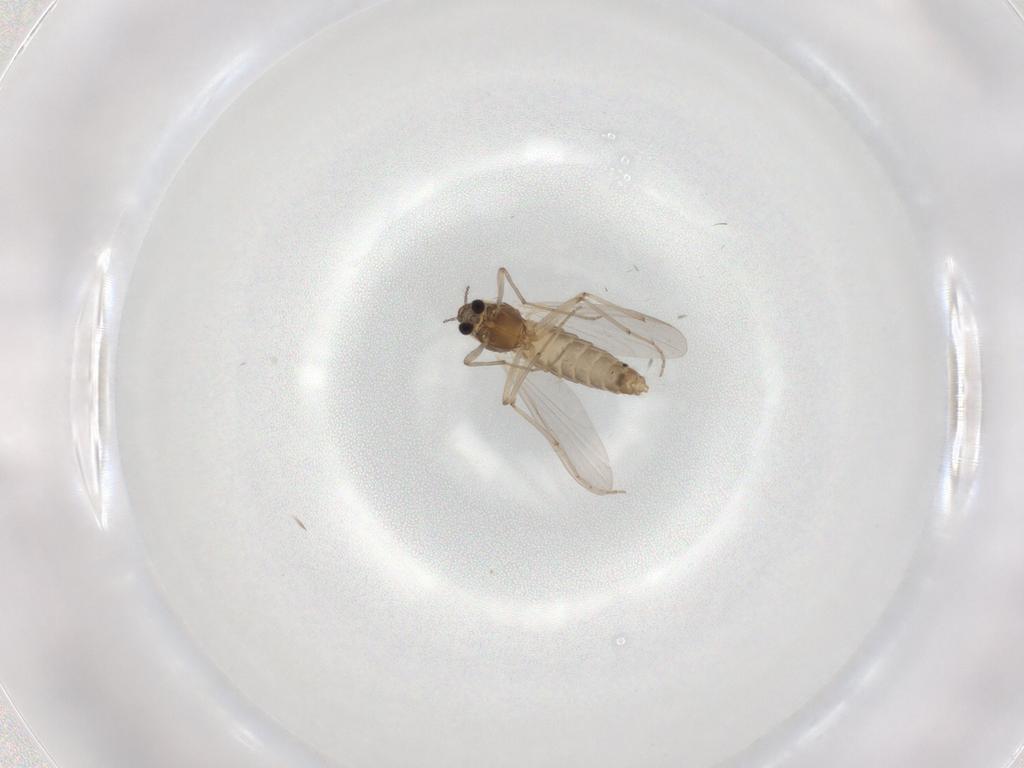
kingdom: Animalia
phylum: Arthropoda
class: Insecta
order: Diptera
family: Chironomidae
